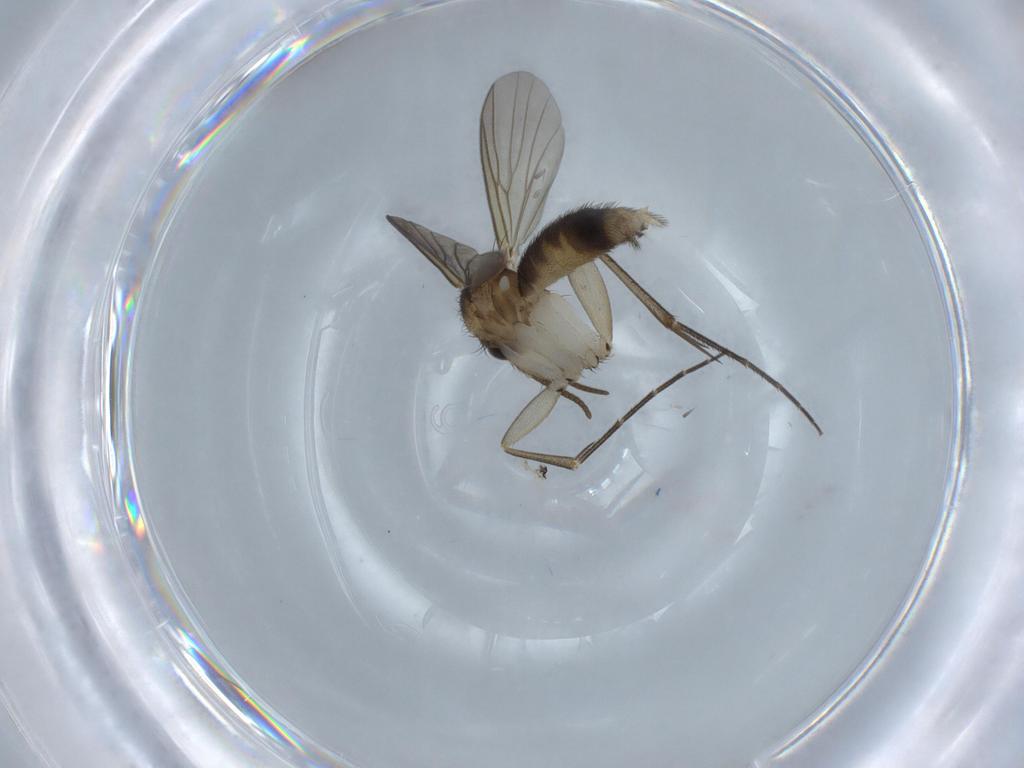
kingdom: Animalia
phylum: Arthropoda
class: Insecta
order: Diptera
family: Mycetophilidae
